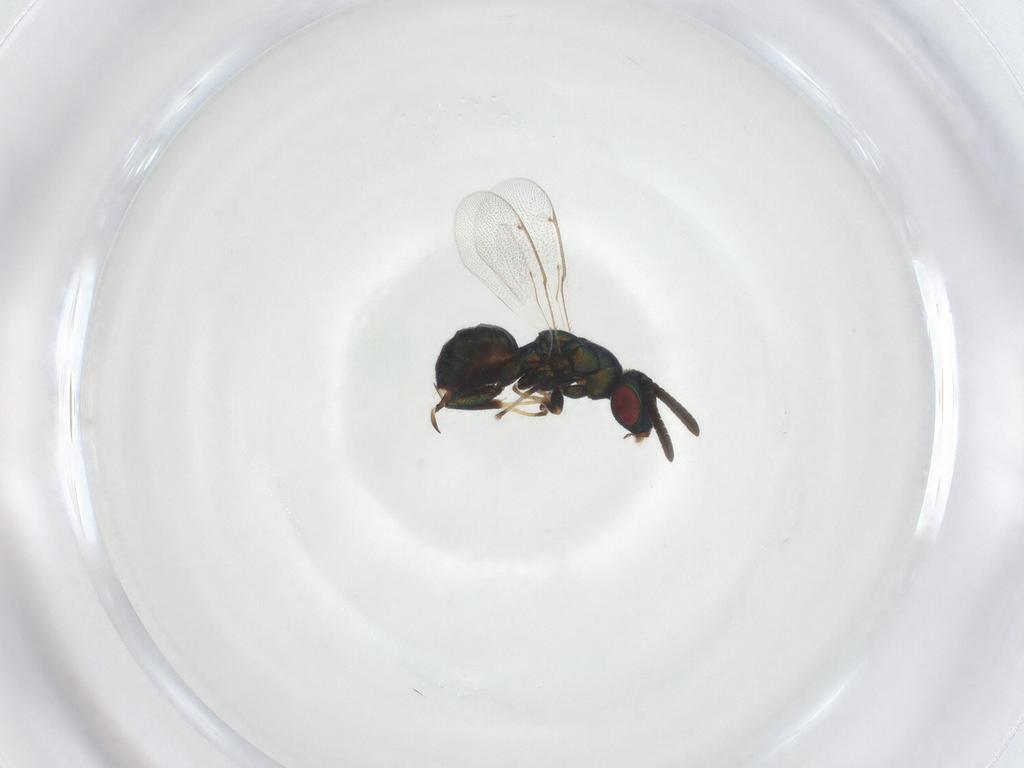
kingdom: Animalia
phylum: Arthropoda
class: Insecta
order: Hymenoptera
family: Torymidae
